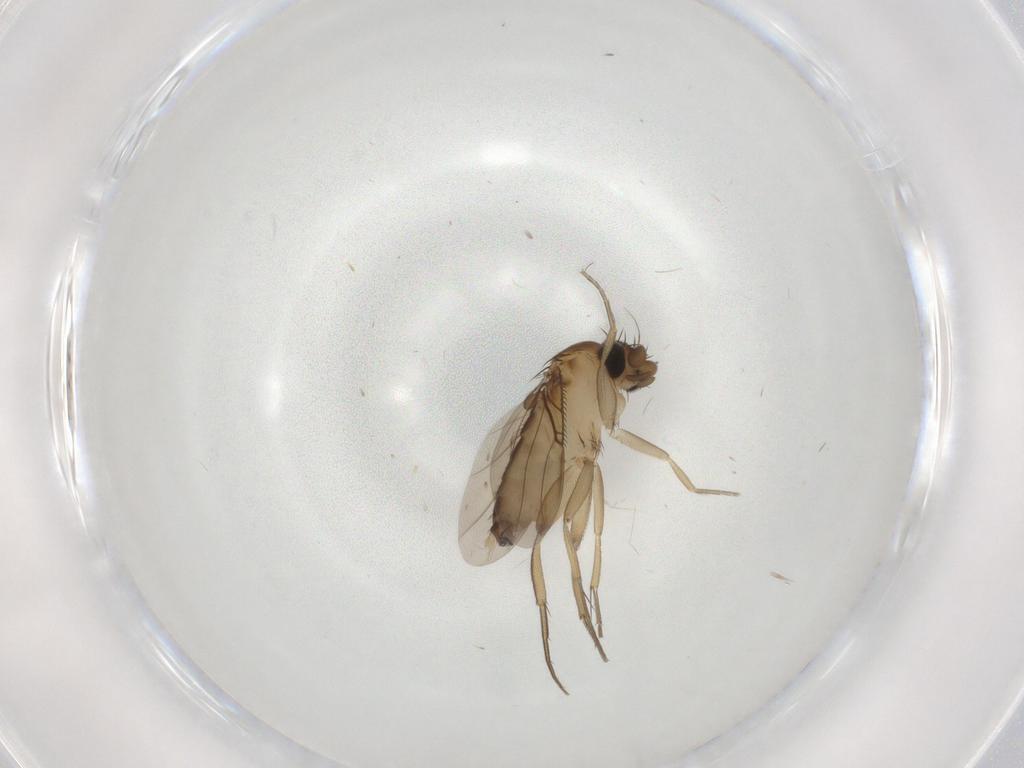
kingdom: Animalia
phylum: Arthropoda
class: Insecta
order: Diptera
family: Phoridae
